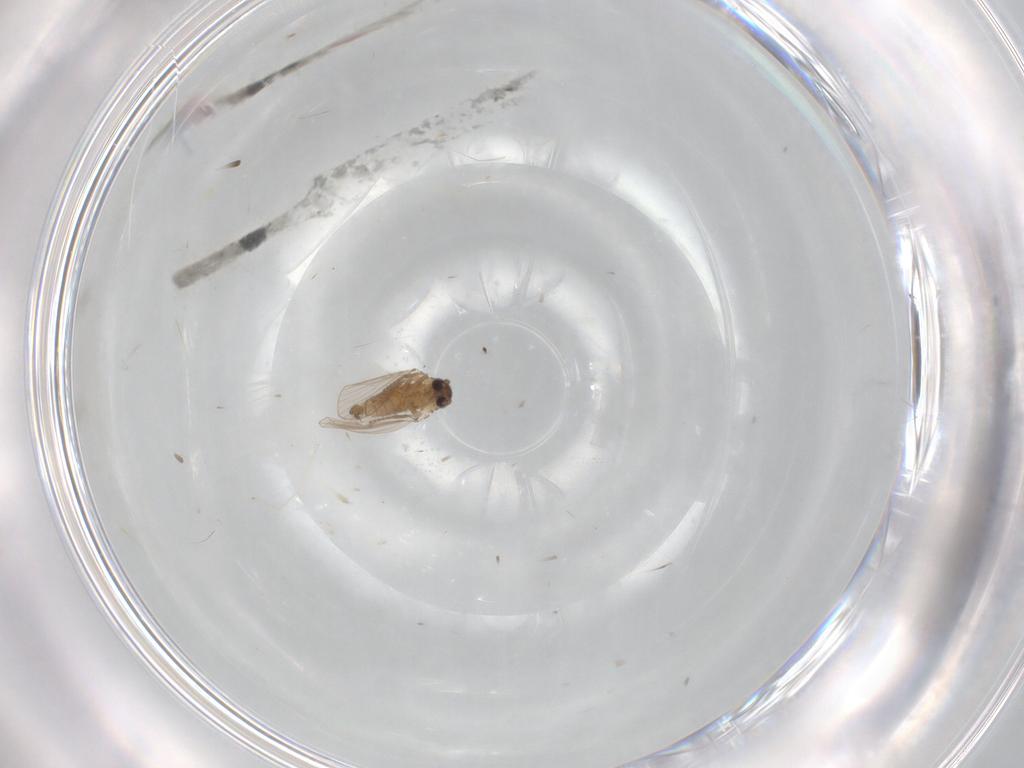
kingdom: Animalia
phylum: Arthropoda
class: Insecta
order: Diptera
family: Psychodidae
